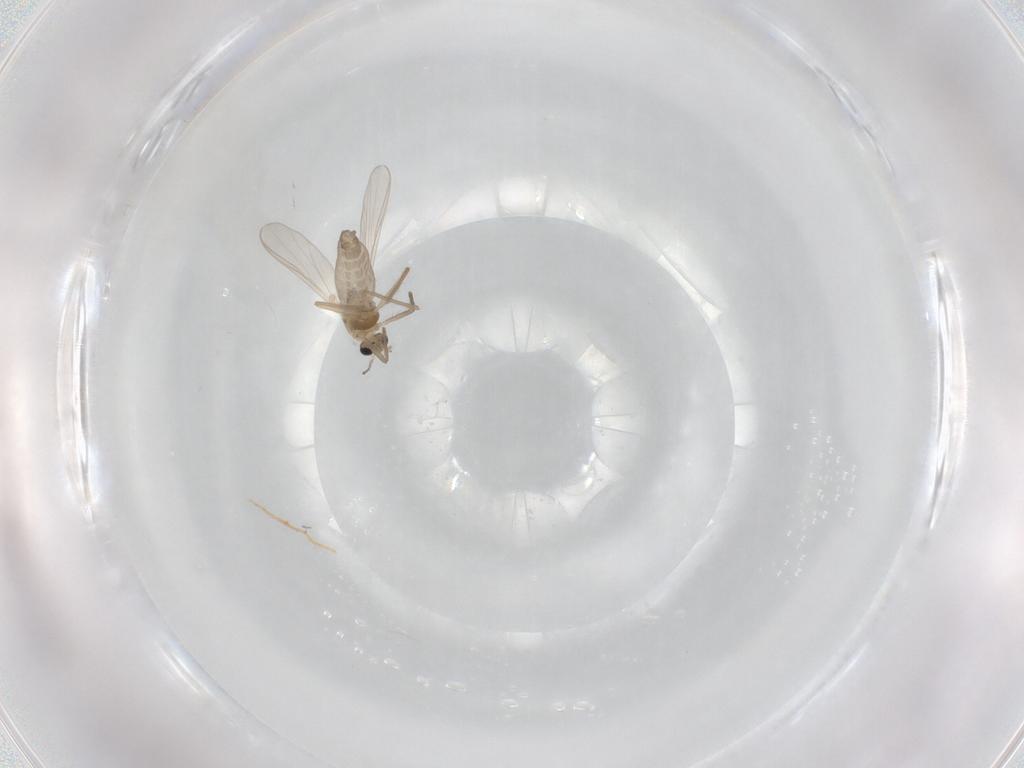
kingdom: Animalia
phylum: Arthropoda
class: Insecta
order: Diptera
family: Chironomidae
